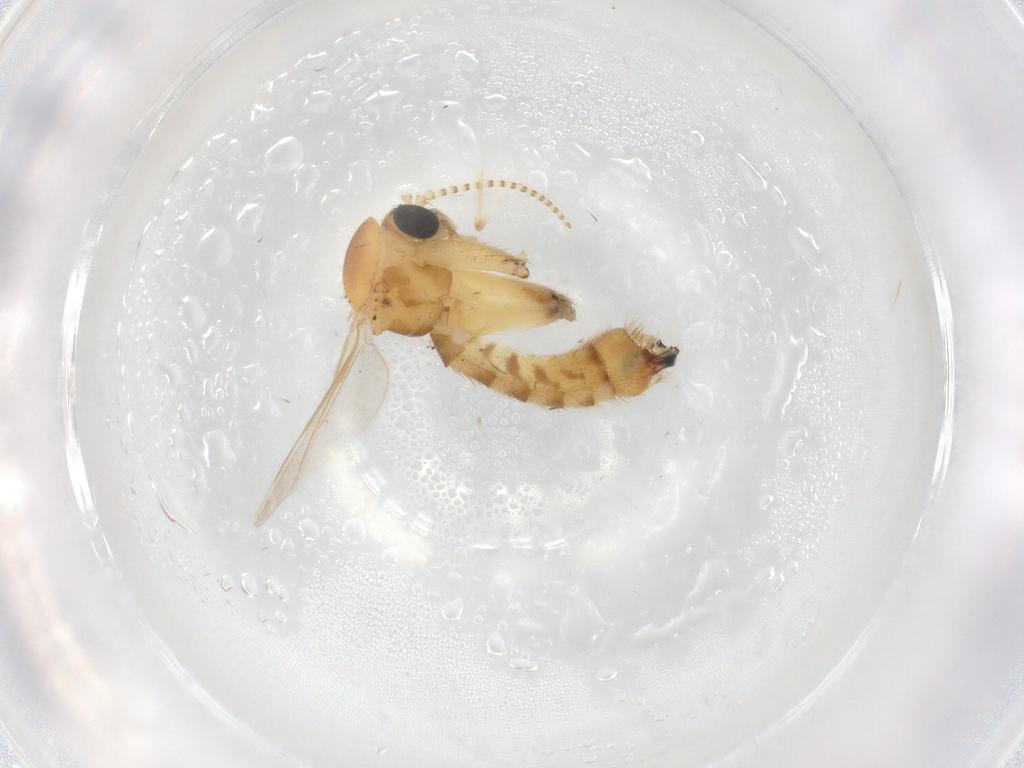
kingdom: Animalia
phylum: Arthropoda
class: Insecta
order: Diptera
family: Mycetophilidae
